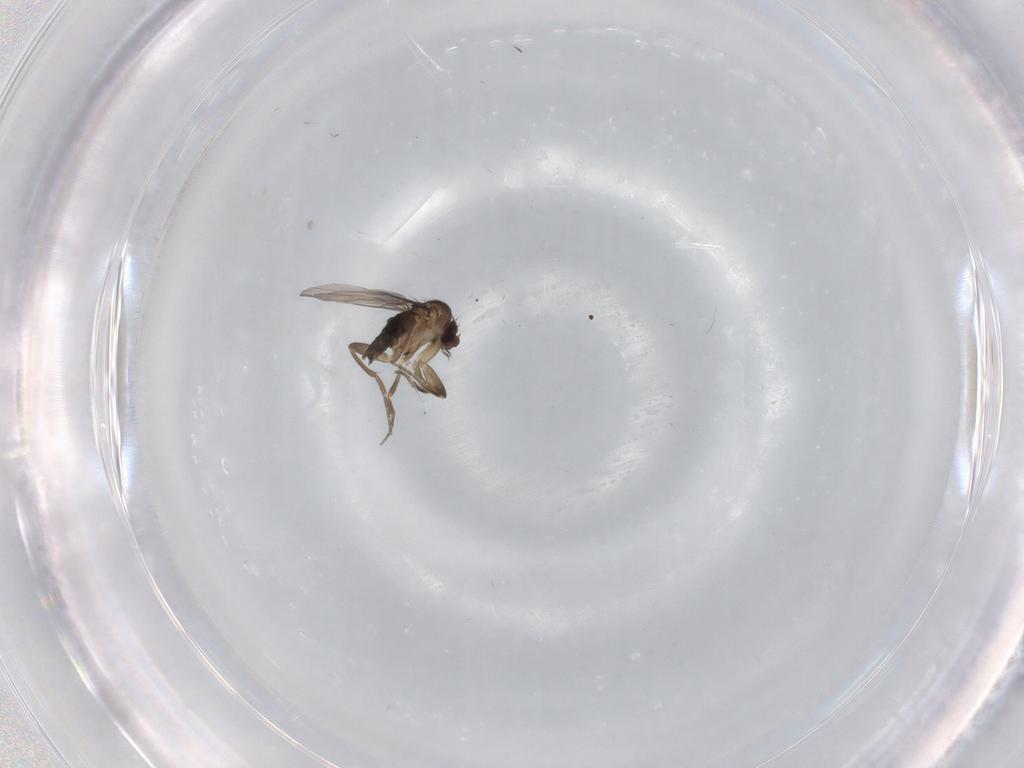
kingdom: Animalia
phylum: Arthropoda
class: Insecta
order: Diptera
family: Phoridae
